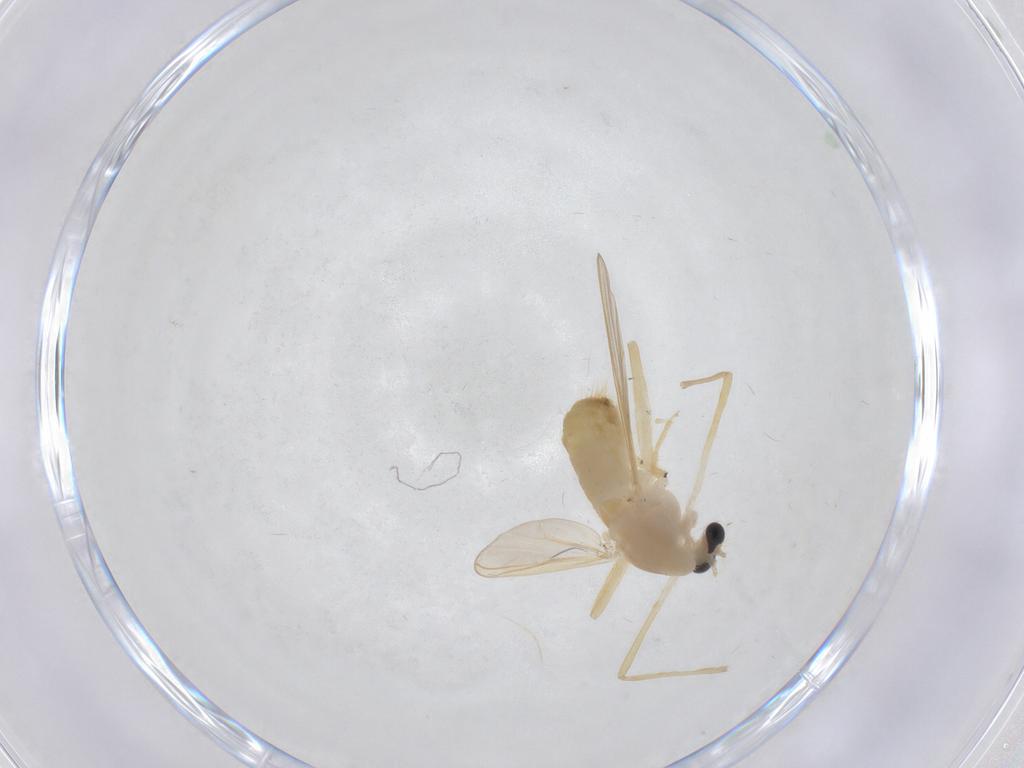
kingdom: Animalia
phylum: Arthropoda
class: Insecta
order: Diptera
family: Chironomidae
